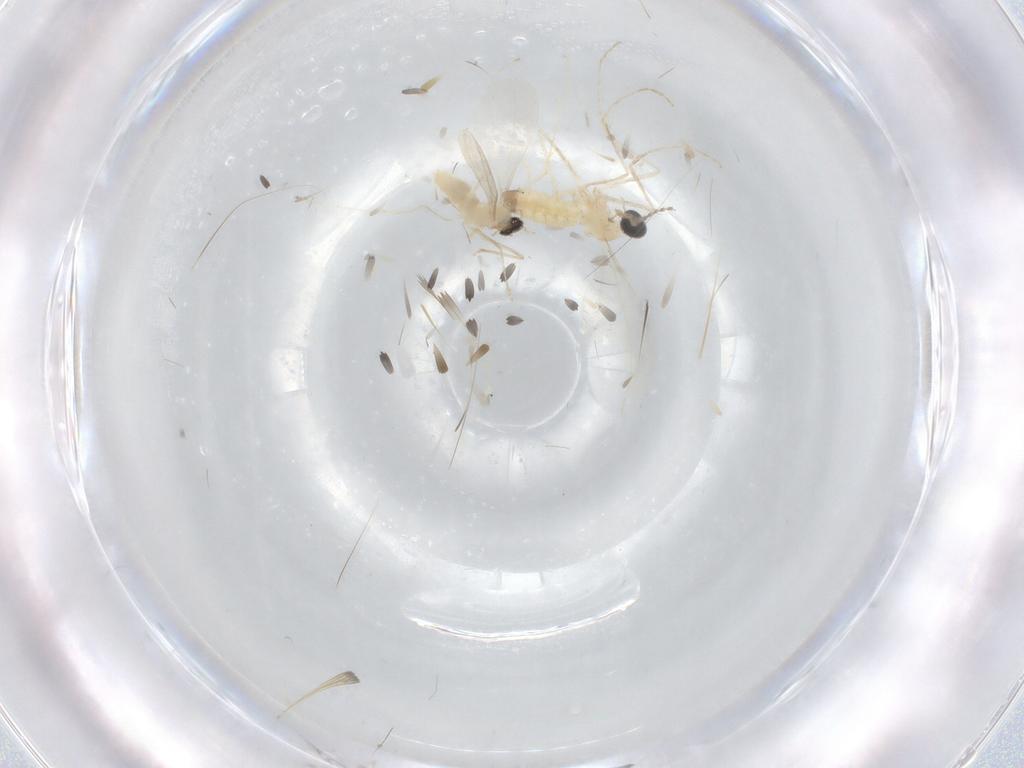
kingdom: Animalia
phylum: Arthropoda
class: Insecta
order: Diptera
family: Cecidomyiidae
